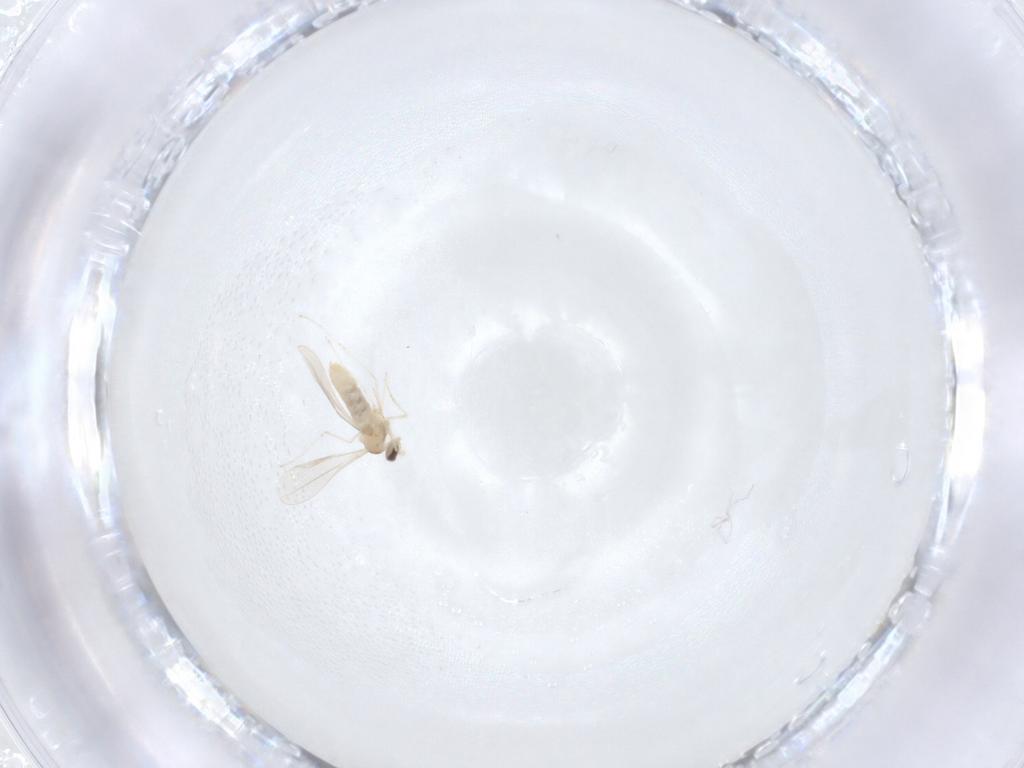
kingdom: Animalia
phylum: Arthropoda
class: Insecta
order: Diptera
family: Cecidomyiidae
